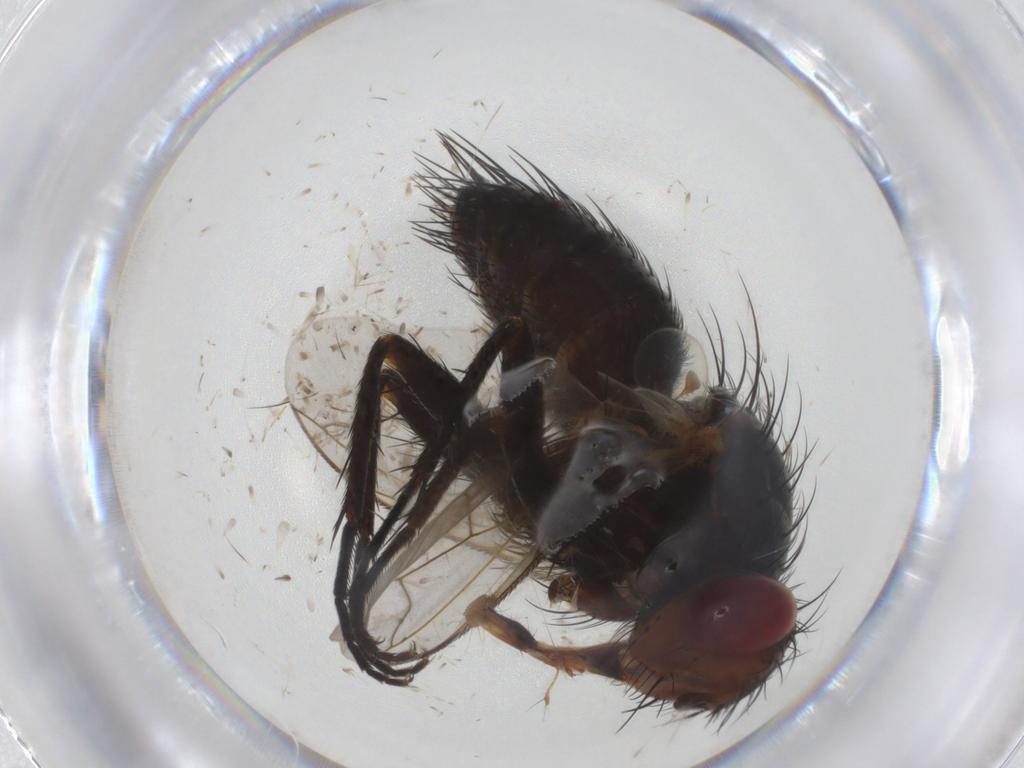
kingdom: Animalia
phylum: Arthropoda
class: Insecta
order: Diptera
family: Tachinidae
